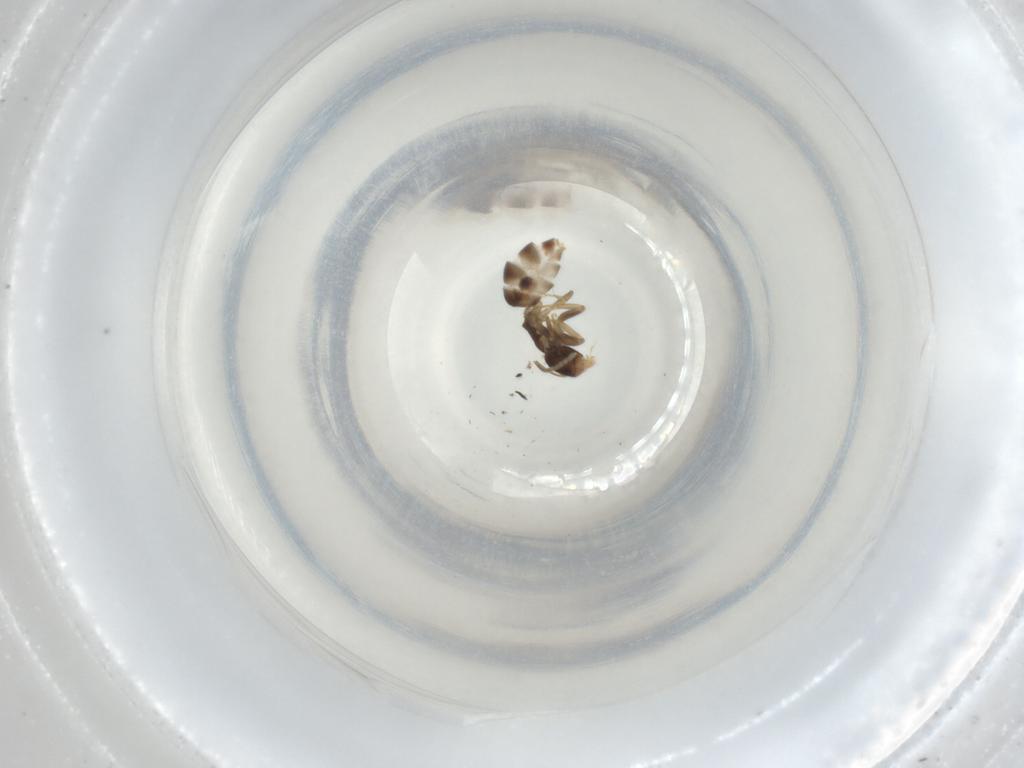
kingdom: Animalia
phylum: Arthropoda
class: Insecta
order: Hymenoptera
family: Formicidae
